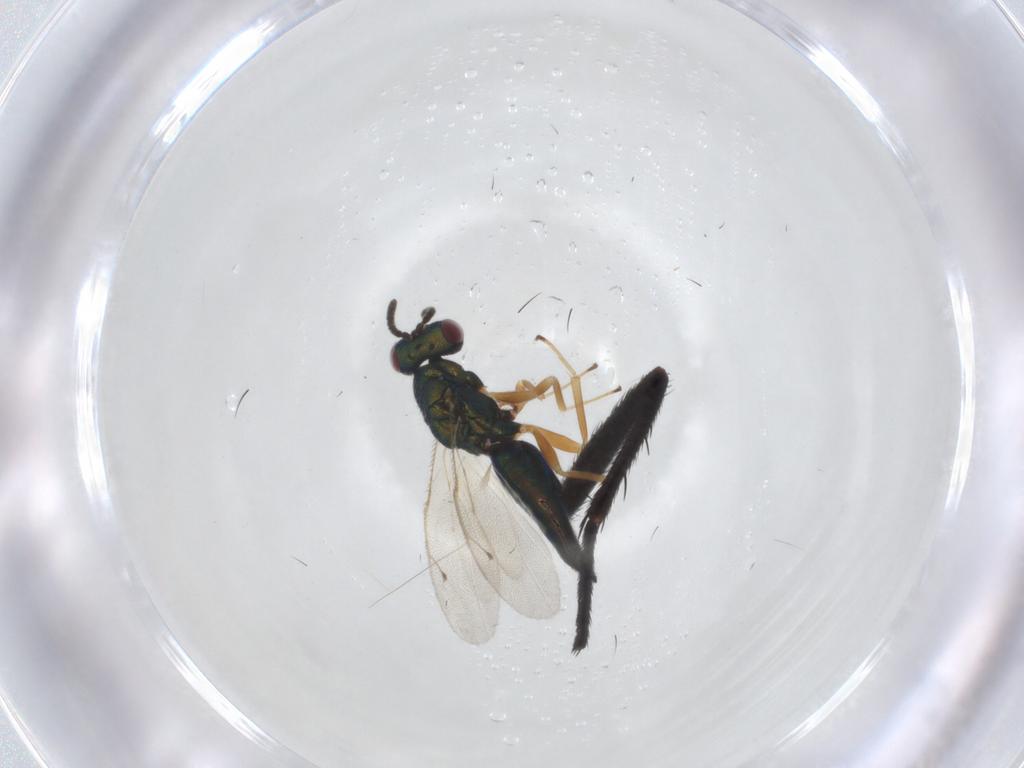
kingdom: Animalia
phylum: Arthropoda
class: Insecta
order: Hymenoptera
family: Pteromalidae
